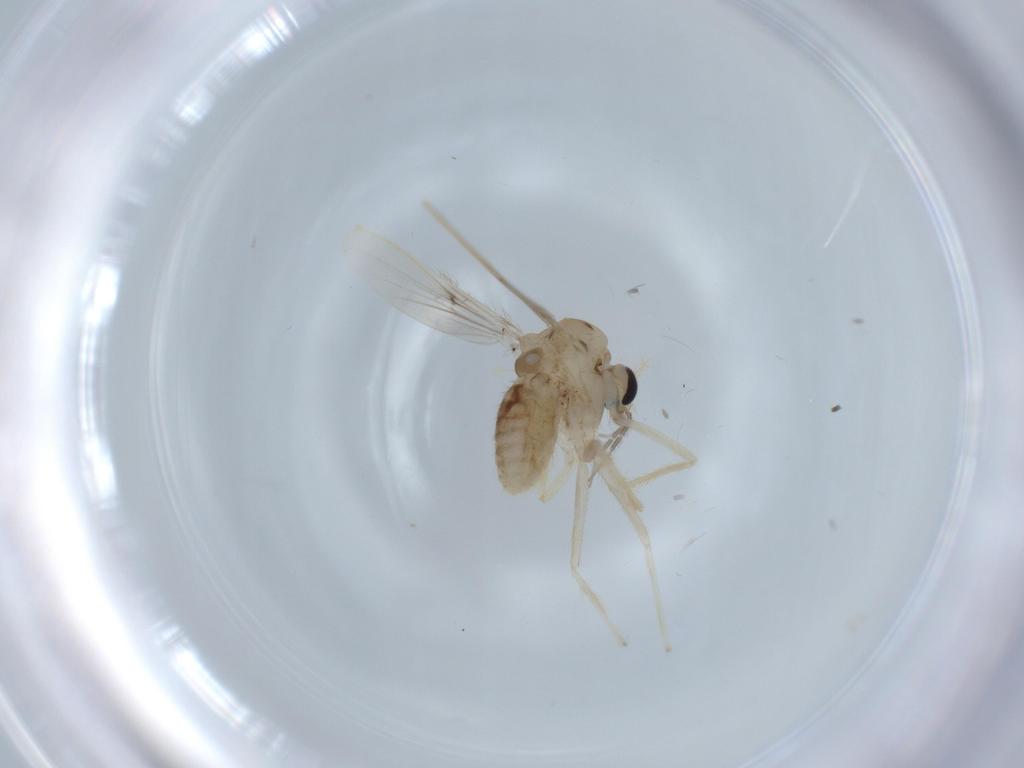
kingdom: Animalia
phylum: Arthropoda
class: Insecta
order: Diptera
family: Chironomidae
